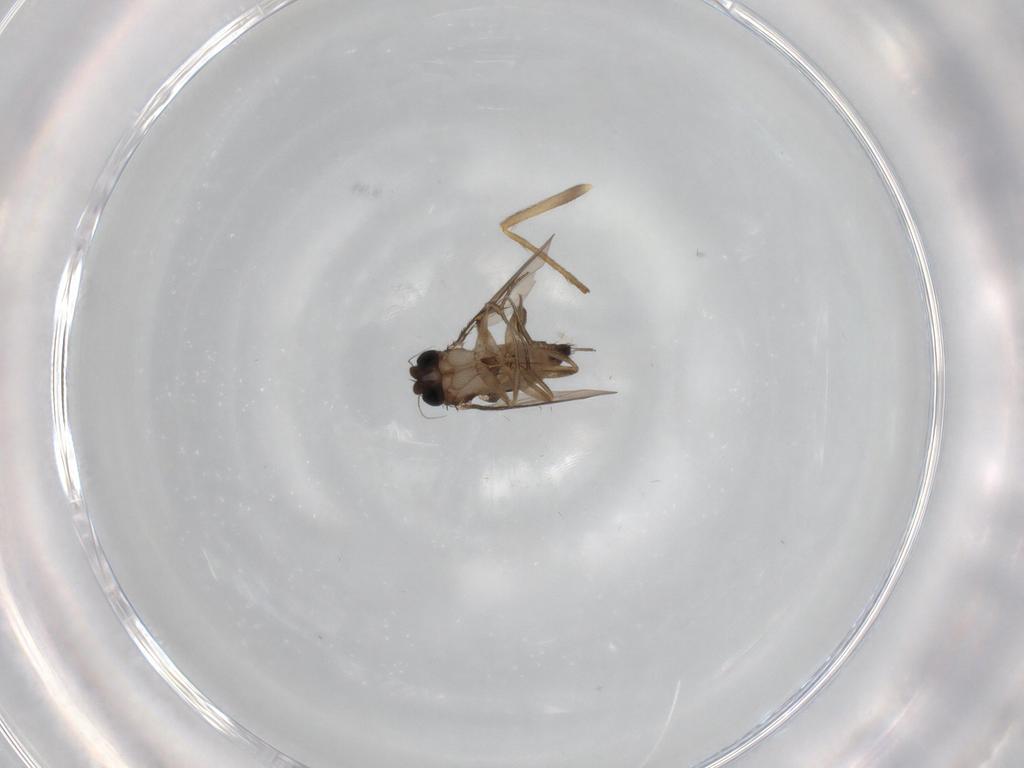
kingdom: Animalia
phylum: Arthropoda
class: Insecta
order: Diptera
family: Chironomidae
